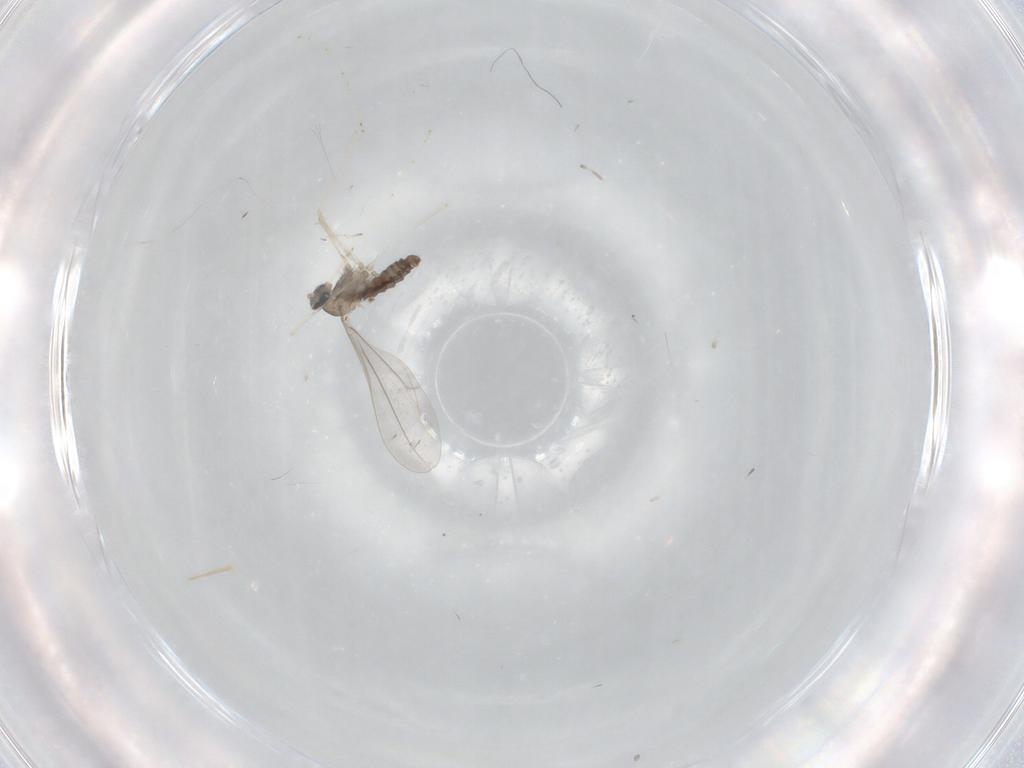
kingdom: Animalia
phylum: Arthropoda
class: Insecta
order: Diptera
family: Cecidomyiidae
